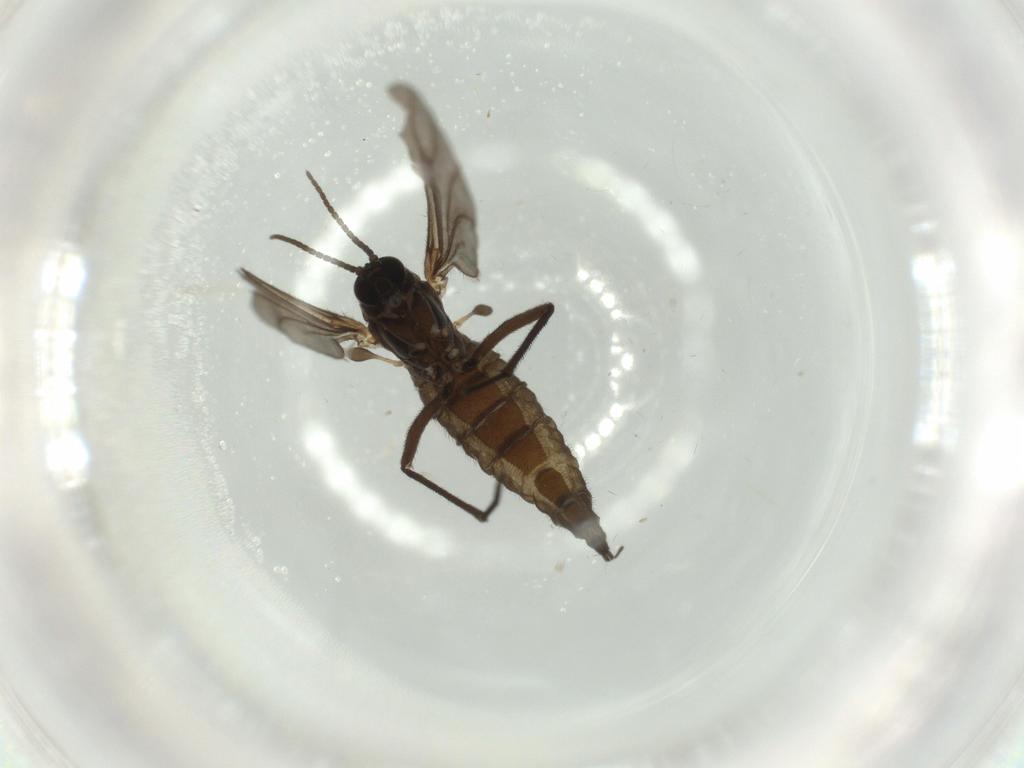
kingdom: Animalia
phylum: Arthropoda
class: Insecta
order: Diptera
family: Sciaridae
